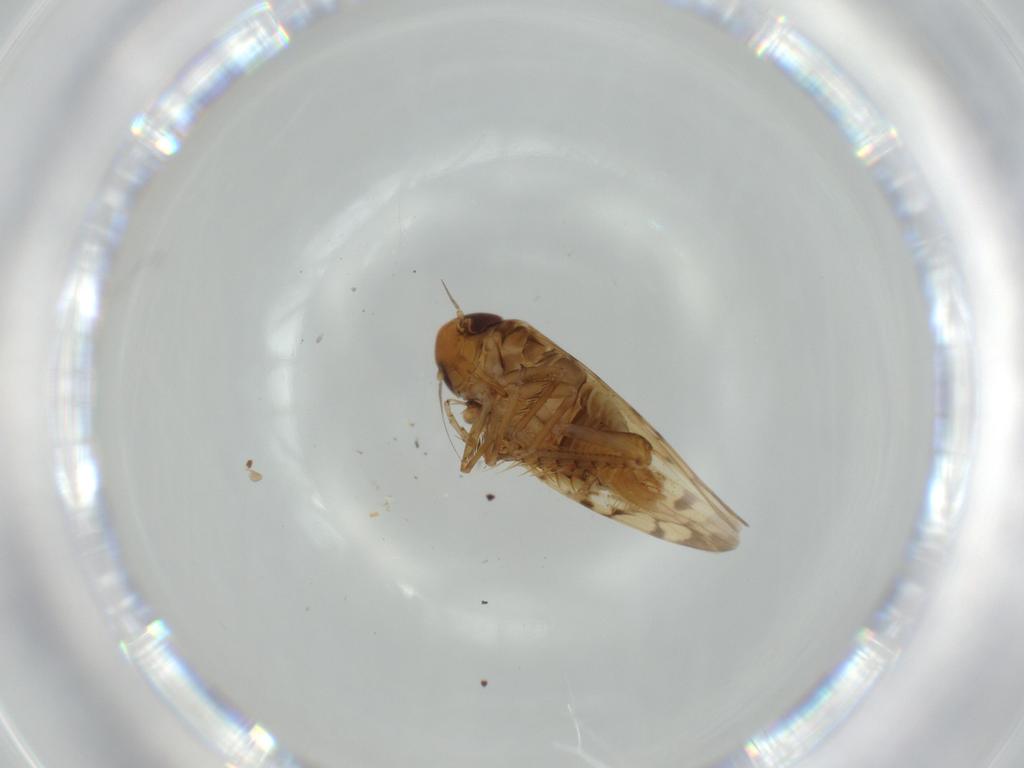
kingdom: Animalia
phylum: Arthropoda
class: Insecta
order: Hemiptera
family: Cicadellidae
